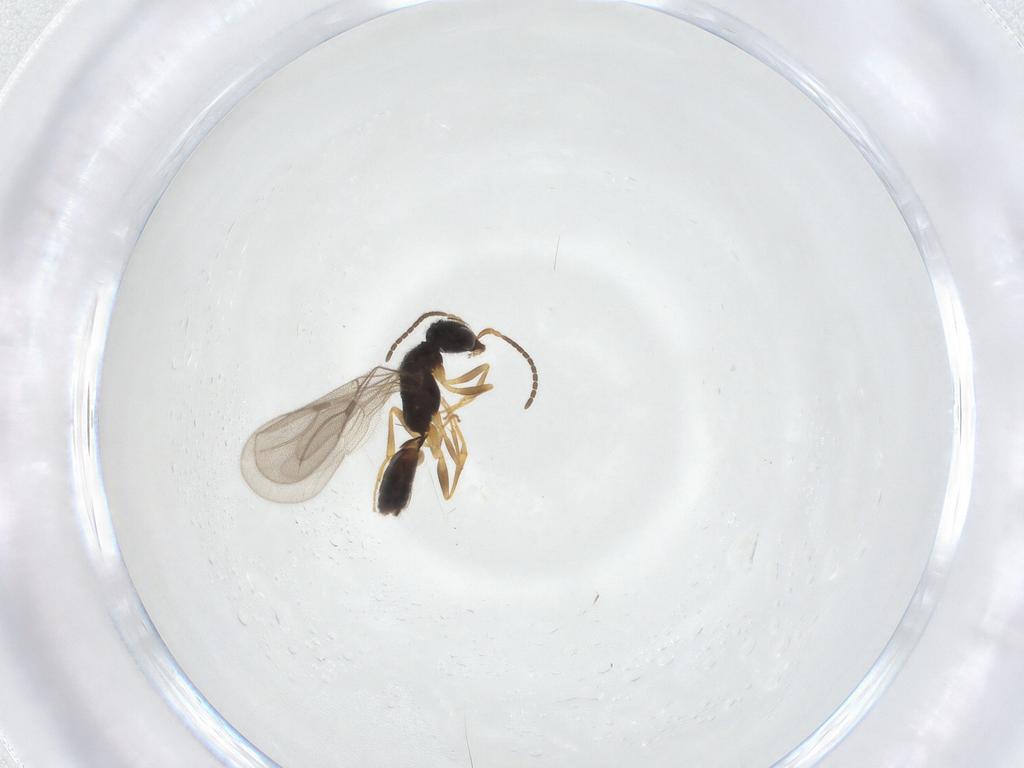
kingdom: Animalia
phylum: Arthropoda
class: Insecta
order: Hymenoptera
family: Bethylidae
